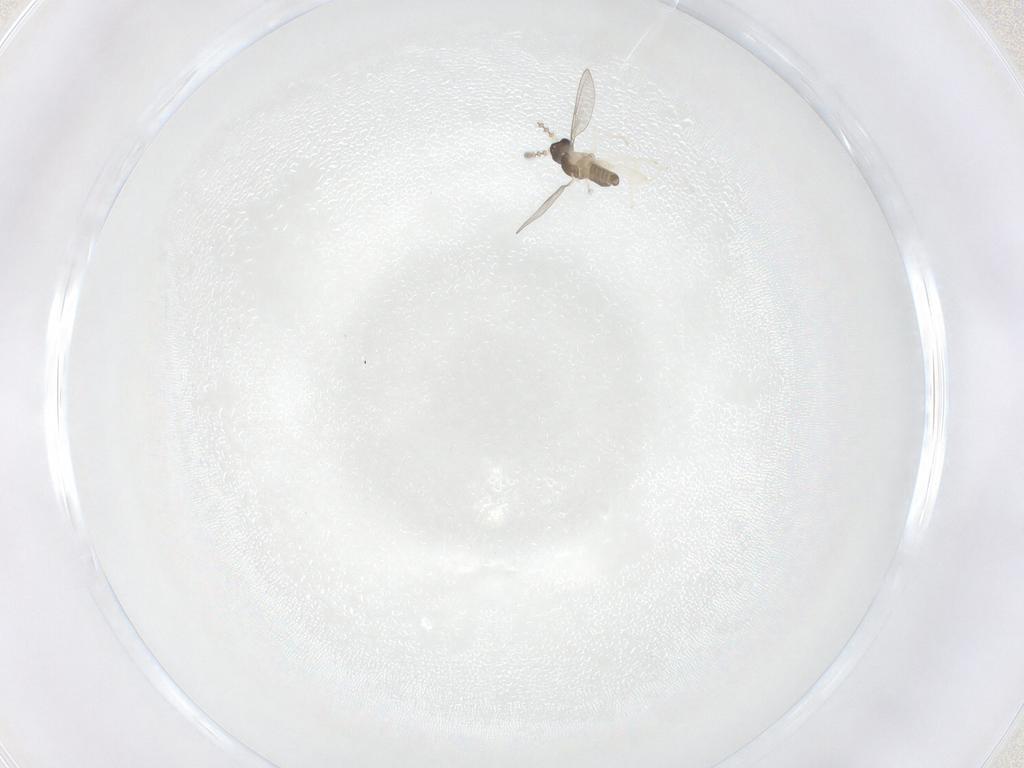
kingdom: Animalia
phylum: Arthropoda
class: Insecta
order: Diptera
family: Cecidomyiidae
